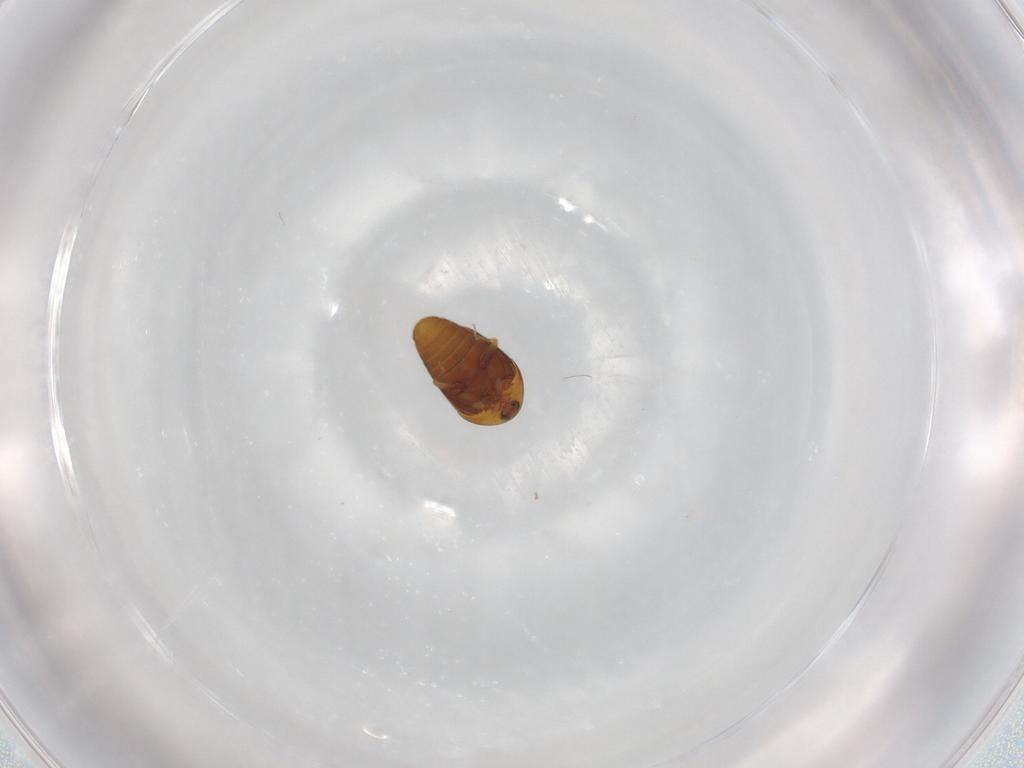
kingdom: Animalia
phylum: Arthropoda
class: Insecta
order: Coleoptera
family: Corylophidae
